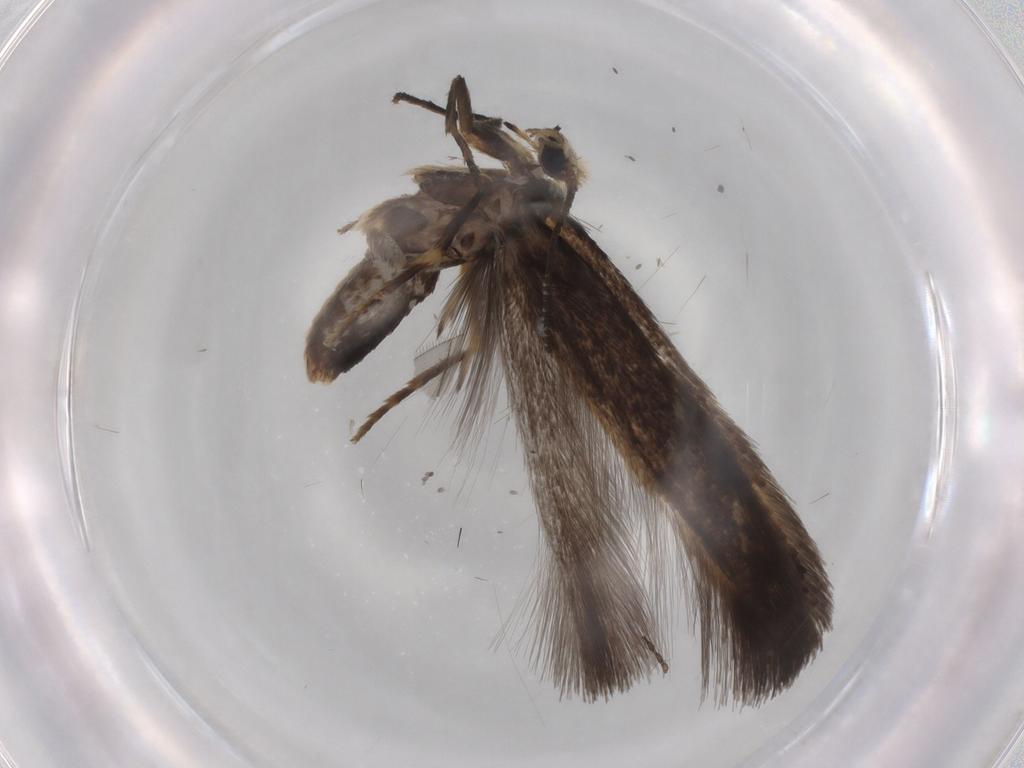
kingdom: Animalia
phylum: Arthropoda
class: Insecta
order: Lepidoptera
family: Nepticulidae
